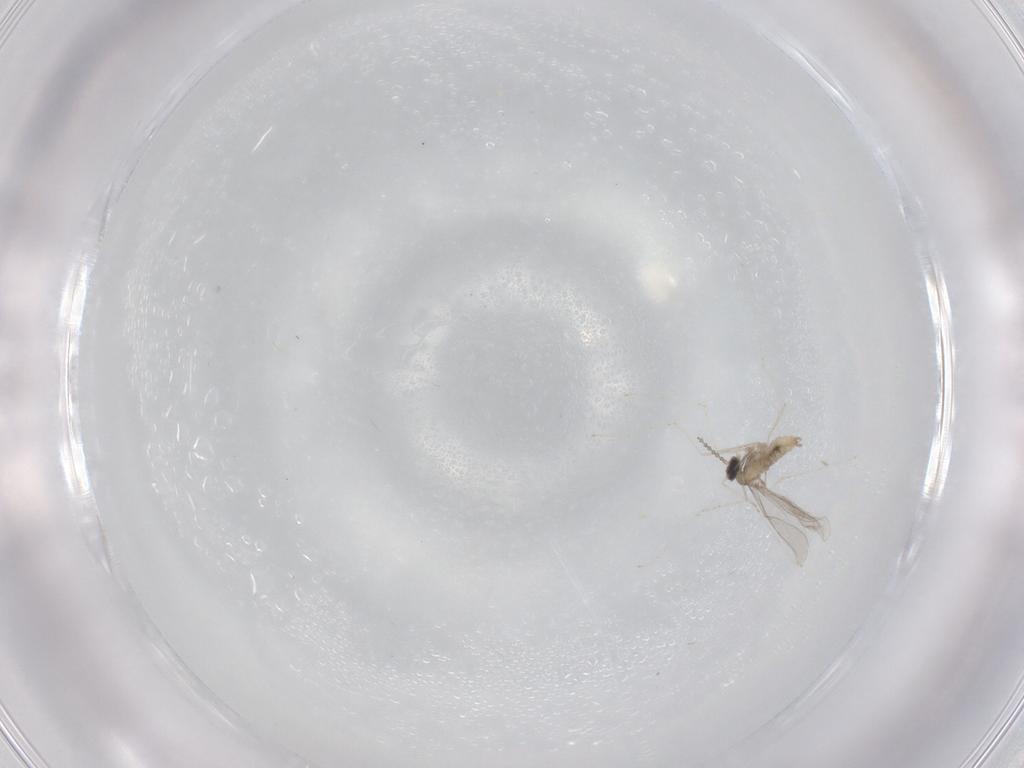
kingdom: Animalia
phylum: Arthropoda
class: Insecta
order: Diptera
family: Cecidomyiidae
